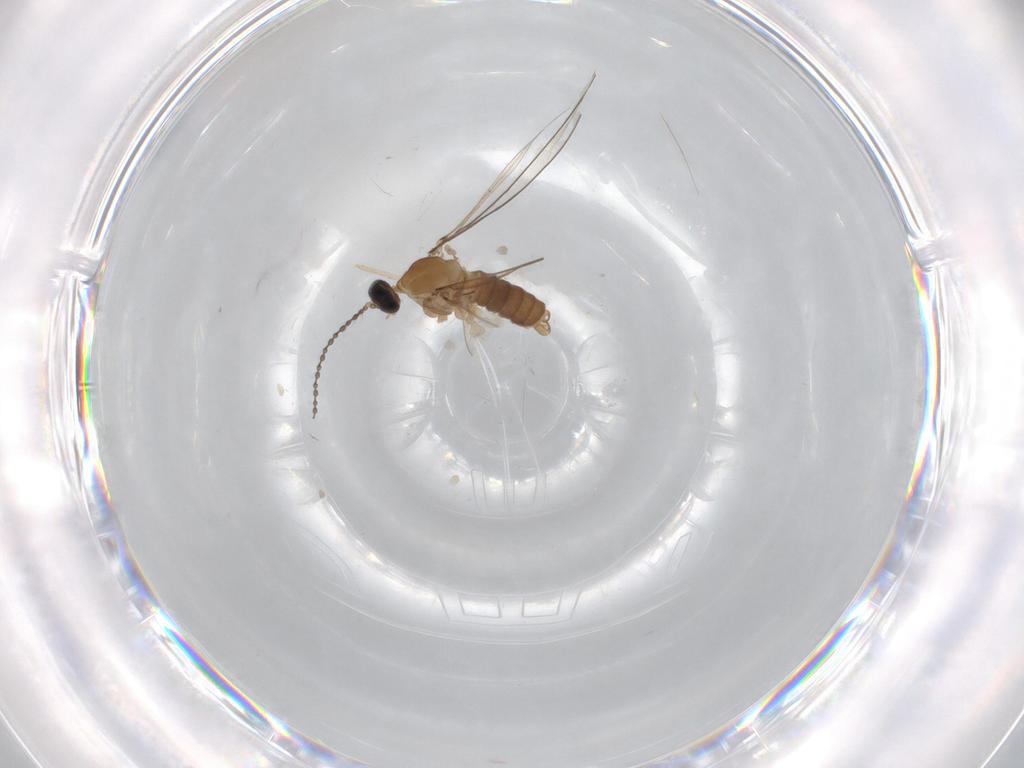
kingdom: Animalia
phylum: Arthropoda
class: Insecta
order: Diptera
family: Cecidomyiidae
